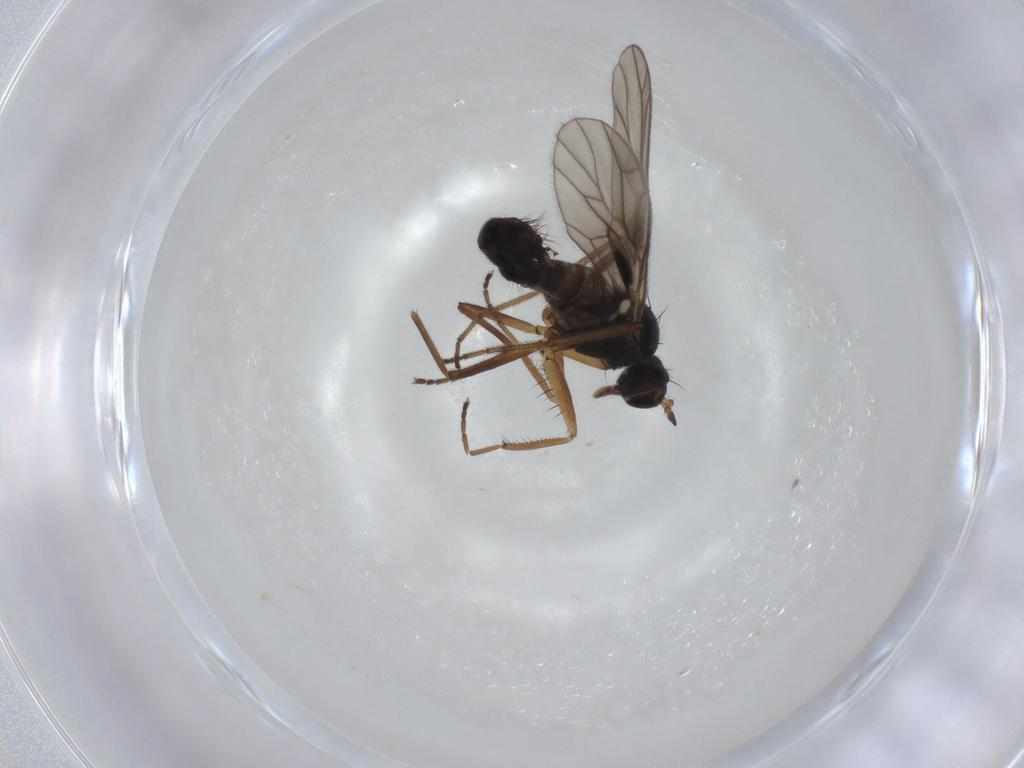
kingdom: Animalia
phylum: Arthropoda
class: Insecta
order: Diptera
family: Empididae
